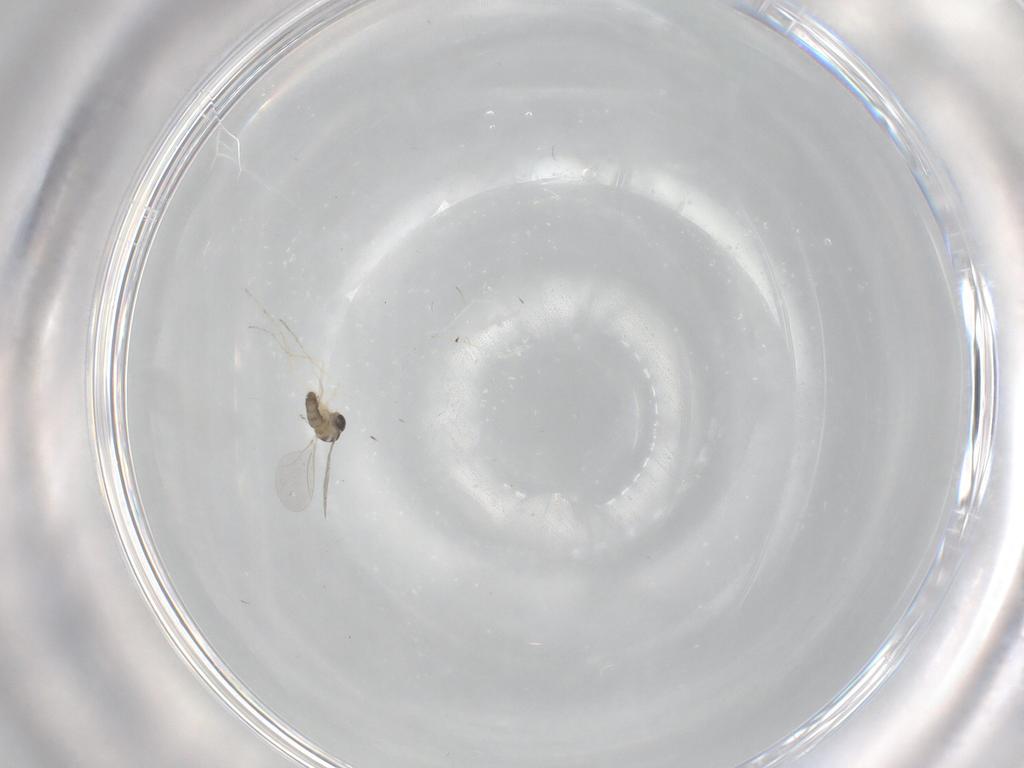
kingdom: Animalia
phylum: Arthropoda
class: Insecta
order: Diptera
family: Cecidomyiidae
